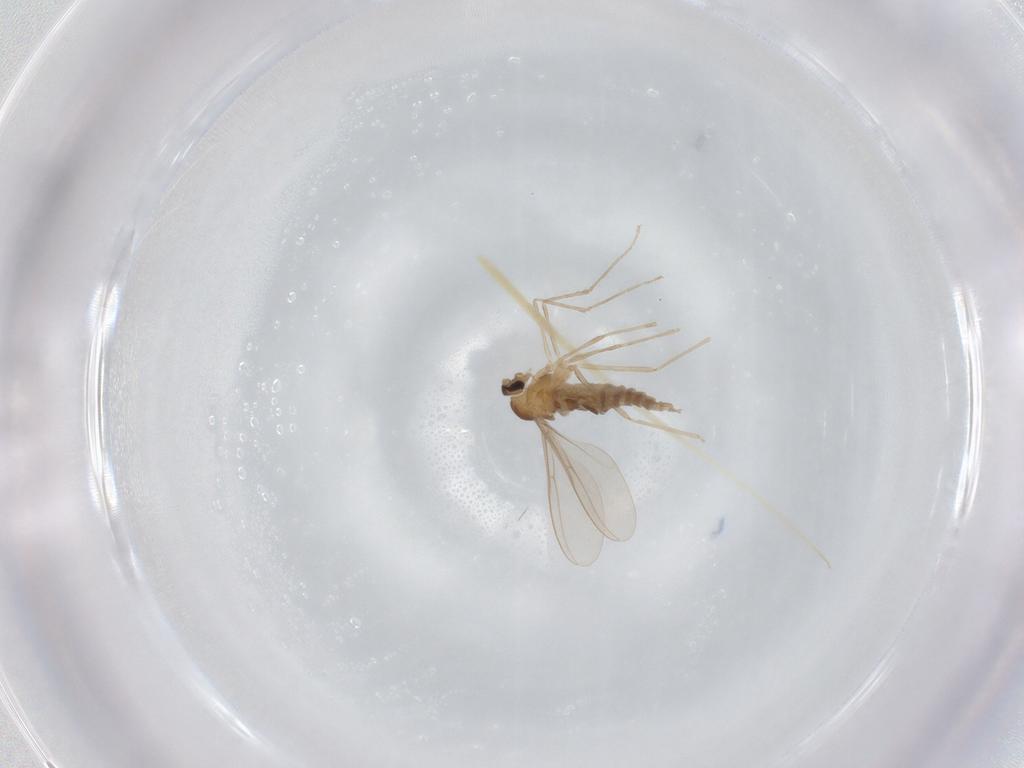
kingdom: Animalia
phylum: Arthropoda
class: Insecta
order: Diptera
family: Cecidomyiidae
